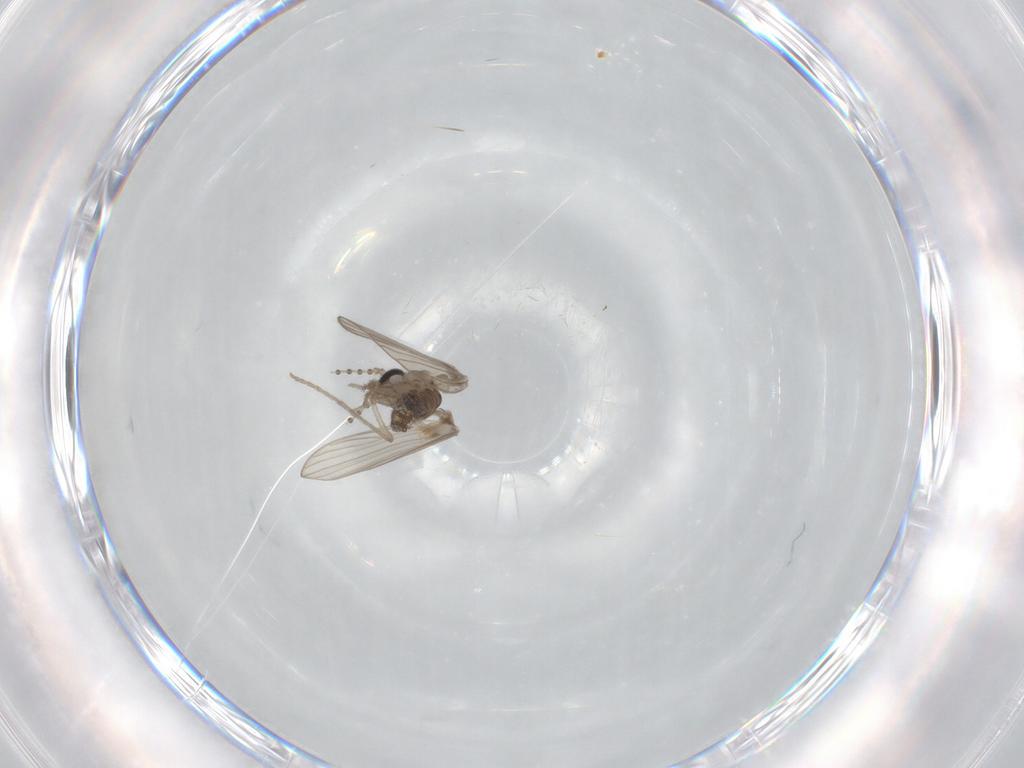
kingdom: Animalia
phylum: Arthropoda
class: Insecta
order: Diptera
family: Psychodidae
